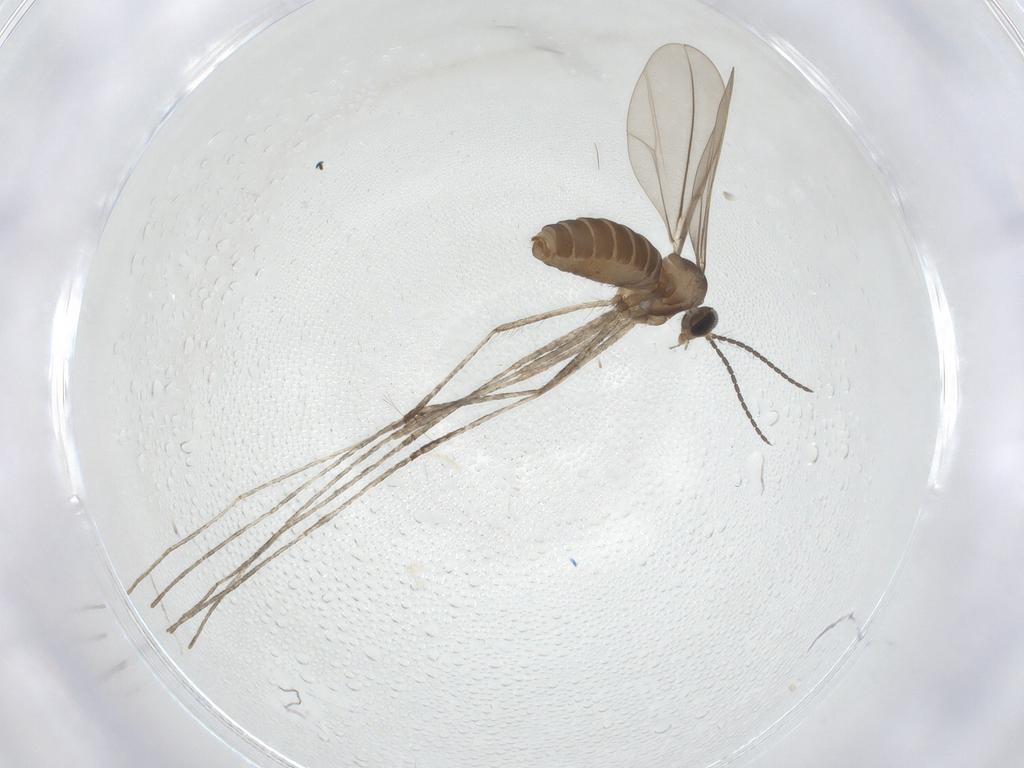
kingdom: Animalia
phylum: Arthropoda
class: Insecta
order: Diptera
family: Cecidomyiidae
